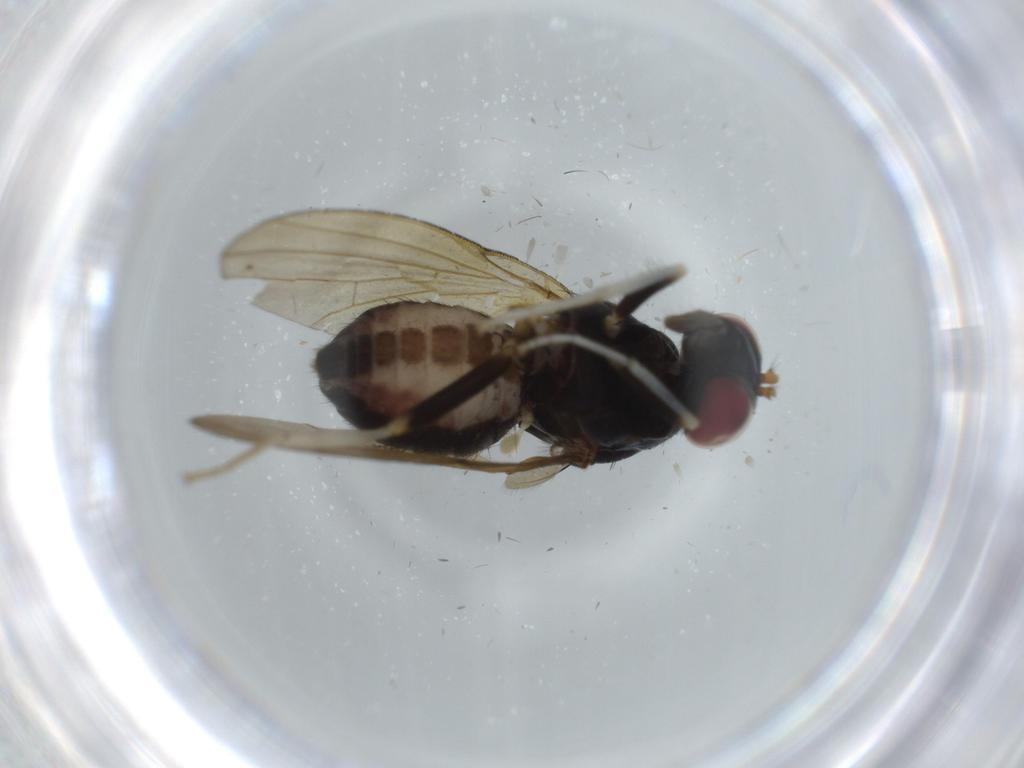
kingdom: Animalia
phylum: Arthropoda
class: Insecta
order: Diptera
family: Lauxaniidae
